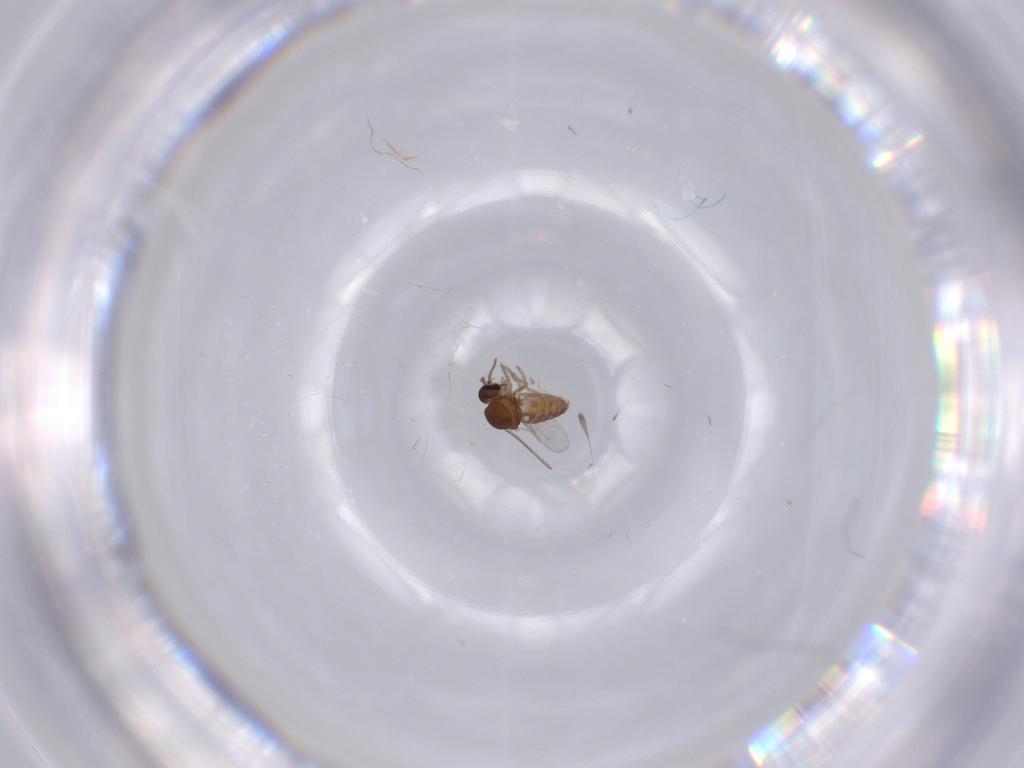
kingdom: Animalia
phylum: Arthropoda
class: Insecta
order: Diptera
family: Ceratopogonidae
